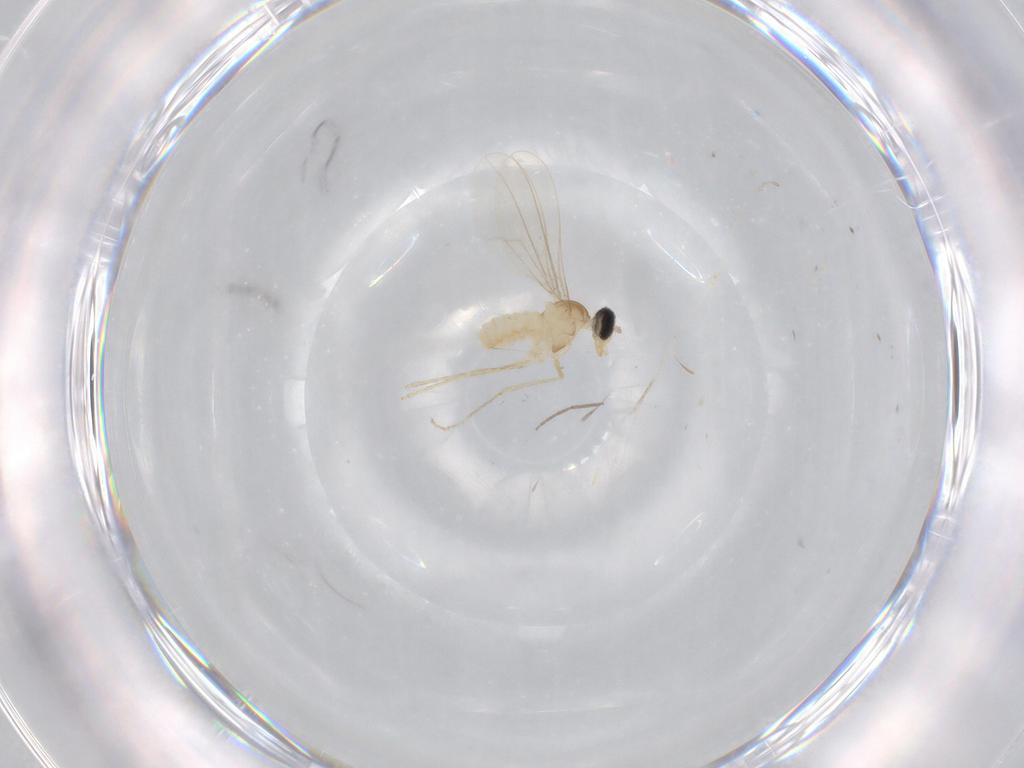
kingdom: Animalia
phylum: Arthropoda
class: Insecta
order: Diptera
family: Cecidomyiidae
